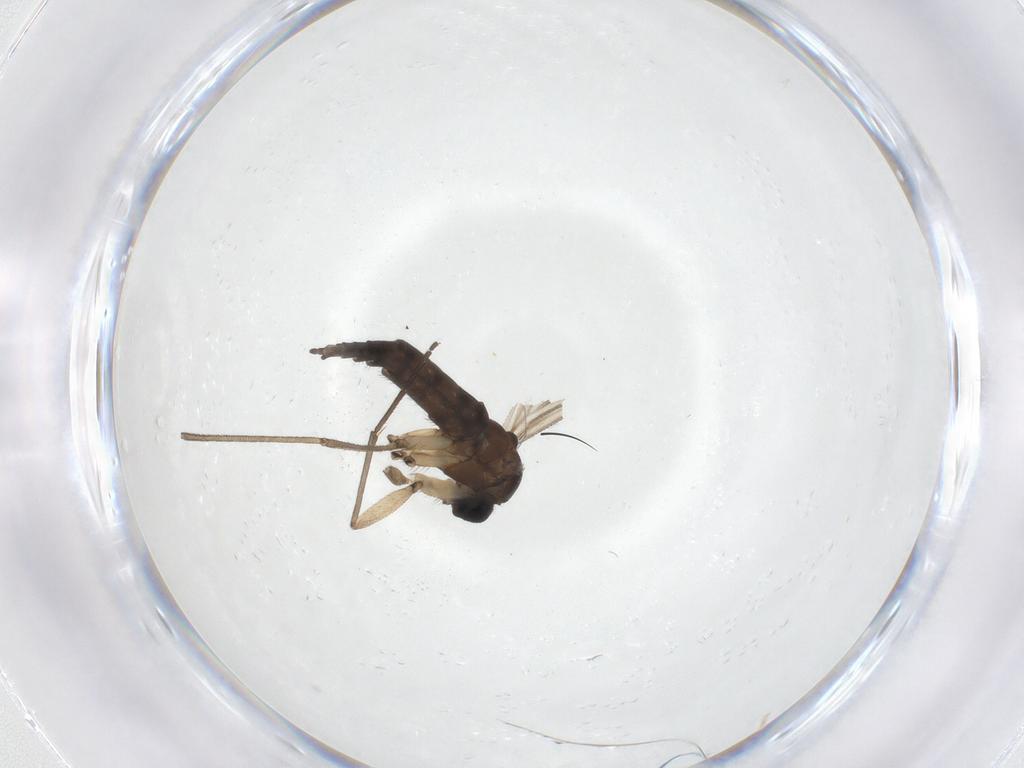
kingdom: Animalia
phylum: Arthropoda
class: Insecta
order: Diptera
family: Sciaridae
